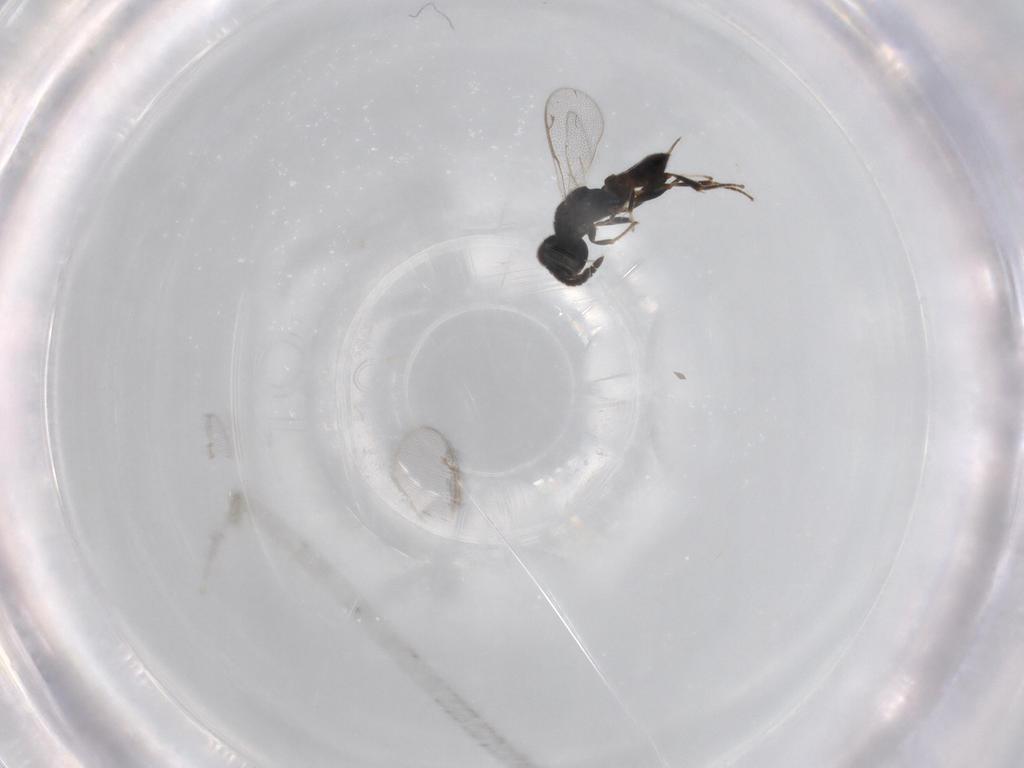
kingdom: Animalia
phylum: Arthropoda
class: Insecta
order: Hymenoptera
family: Cleonyminae
